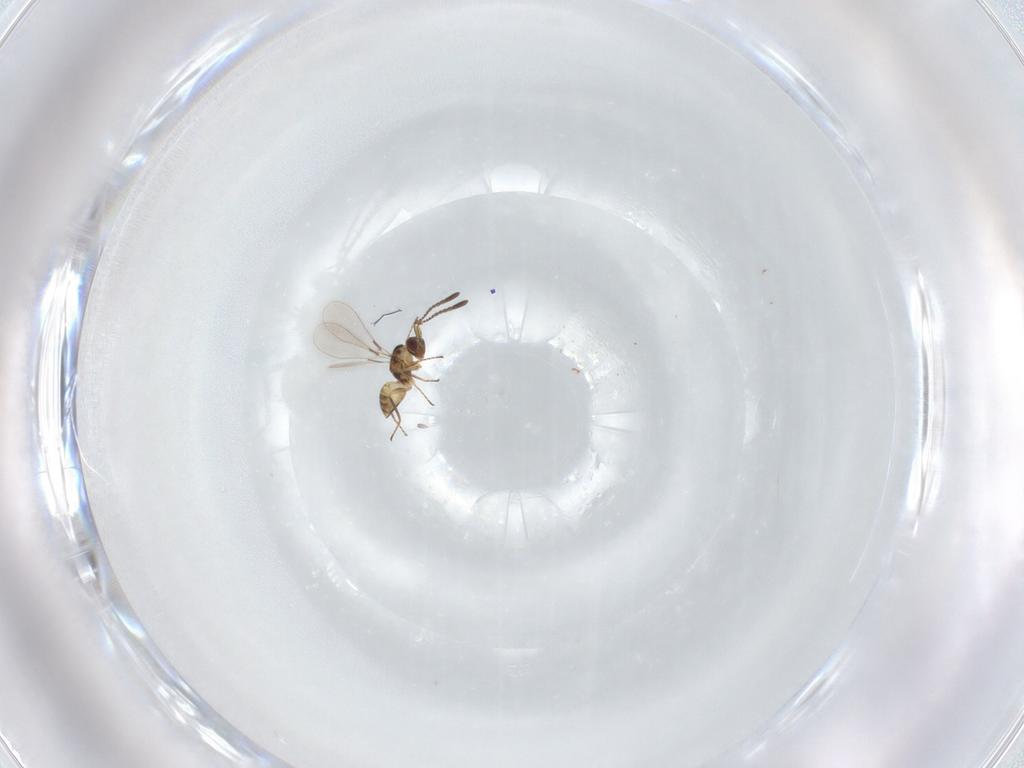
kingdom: Animalia
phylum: Arthropoda
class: Insecta
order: Hymenoptera
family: Mymaridae
